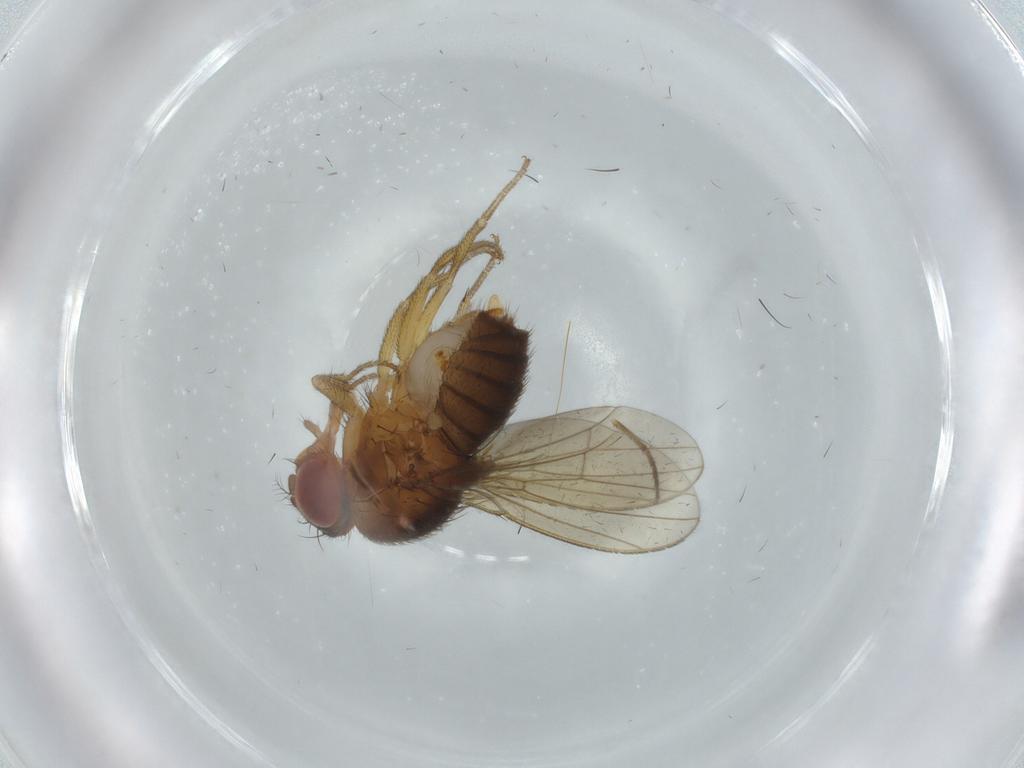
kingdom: Animalia
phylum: Arthropoda
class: Insecta
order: Diptera
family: Drosophilidae
